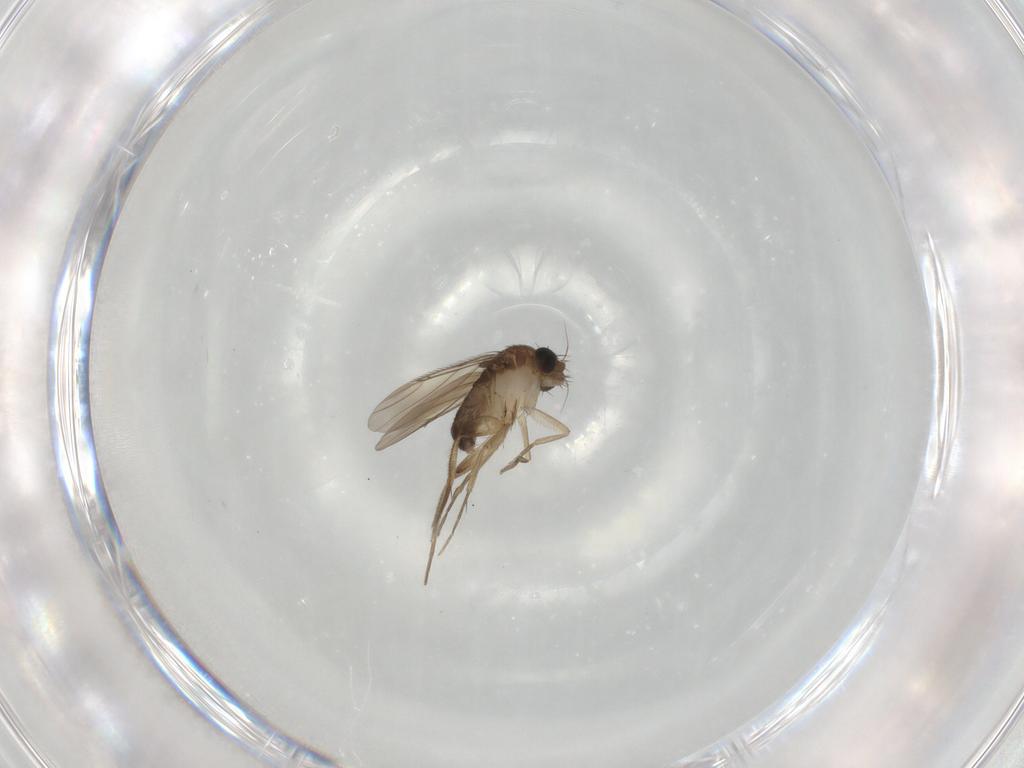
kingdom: Animalia
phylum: Arthropoda
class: Insecta
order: Diptera
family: Phoridae
